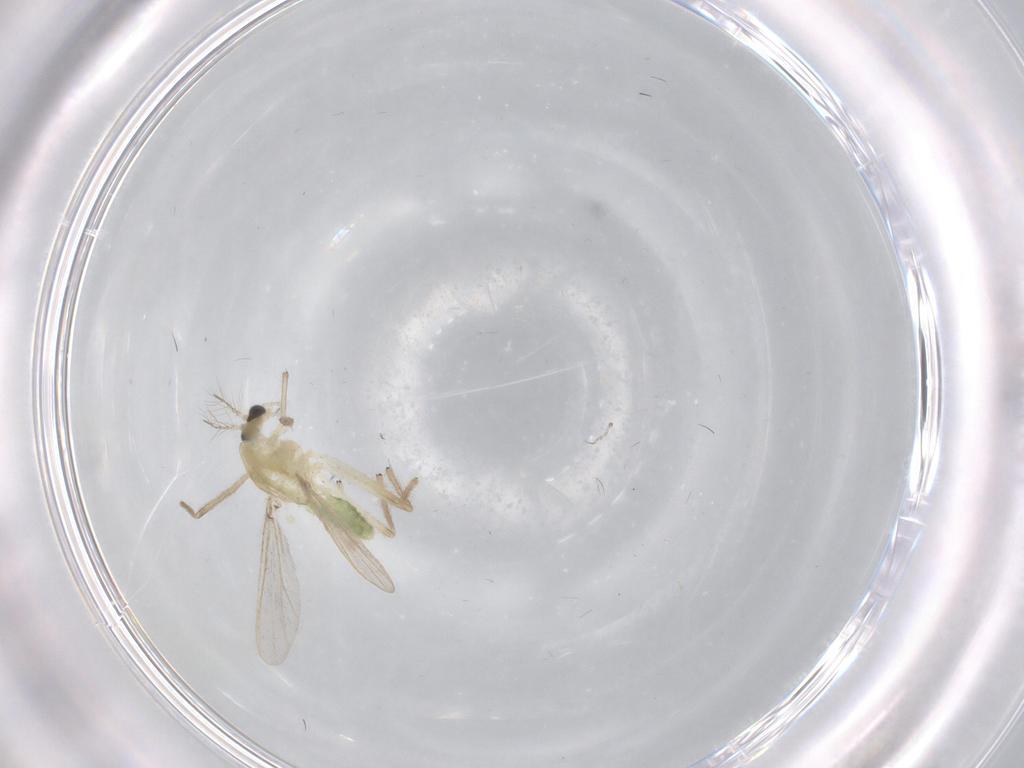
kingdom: Animalia
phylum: Arthropoda
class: Insecta
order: Diptera
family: Chironomidae
